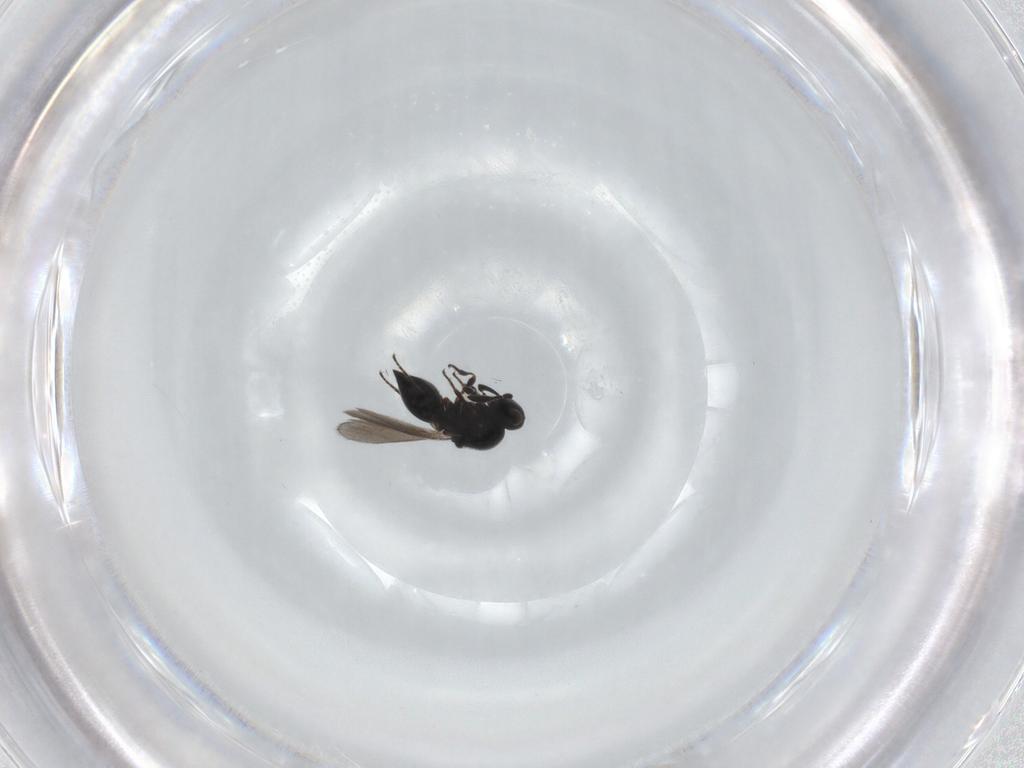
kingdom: Animalia
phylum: Arthropoda
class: Insecta
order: Hymenoptera
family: Platygastridae
